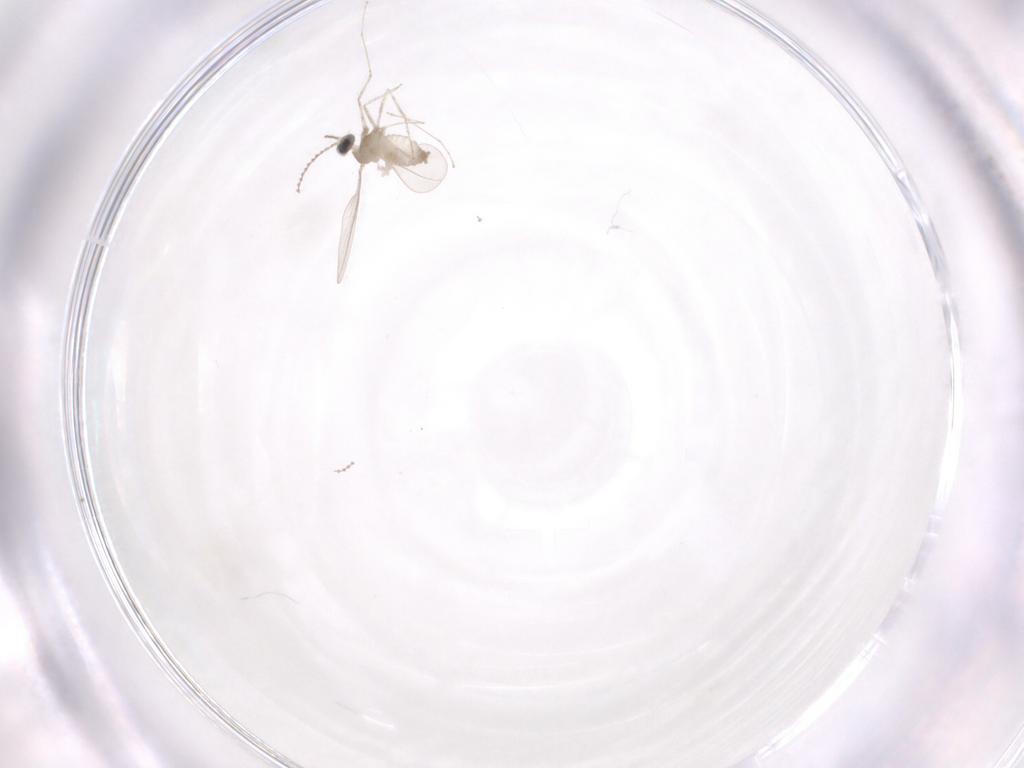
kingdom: Animalia
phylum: Arthropoda
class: Insecta
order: Diptera
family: Cecidomyiidae
